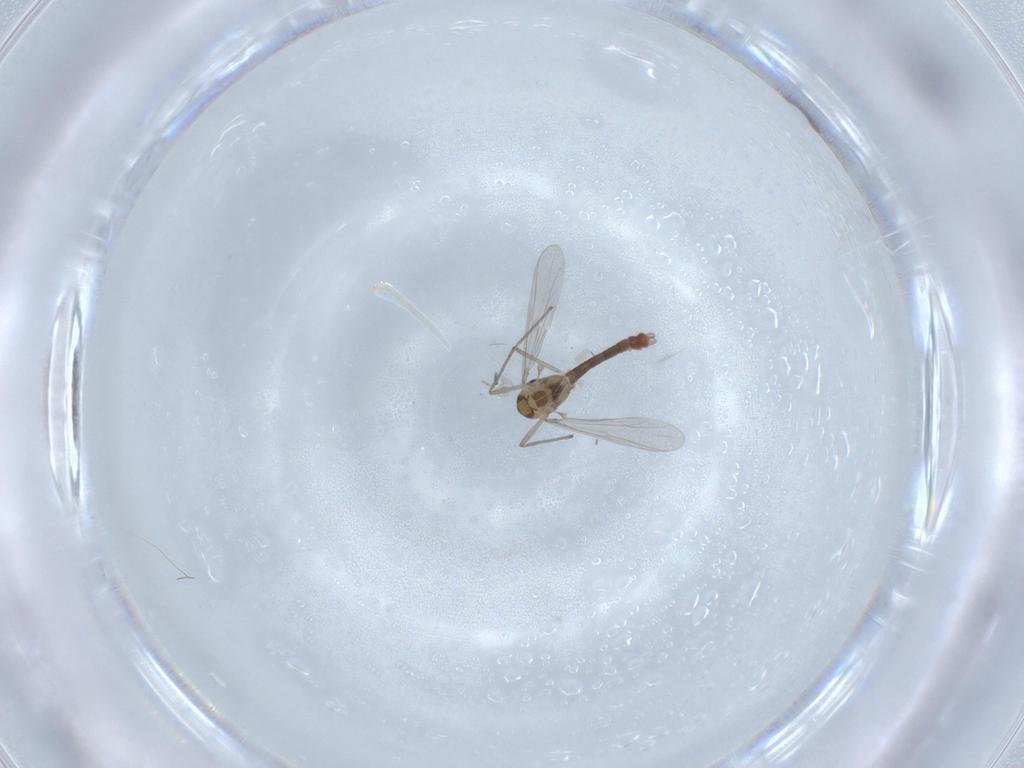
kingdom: Animalia
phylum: Arthropoda
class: Insecta
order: Diptera
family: Chironomidae
